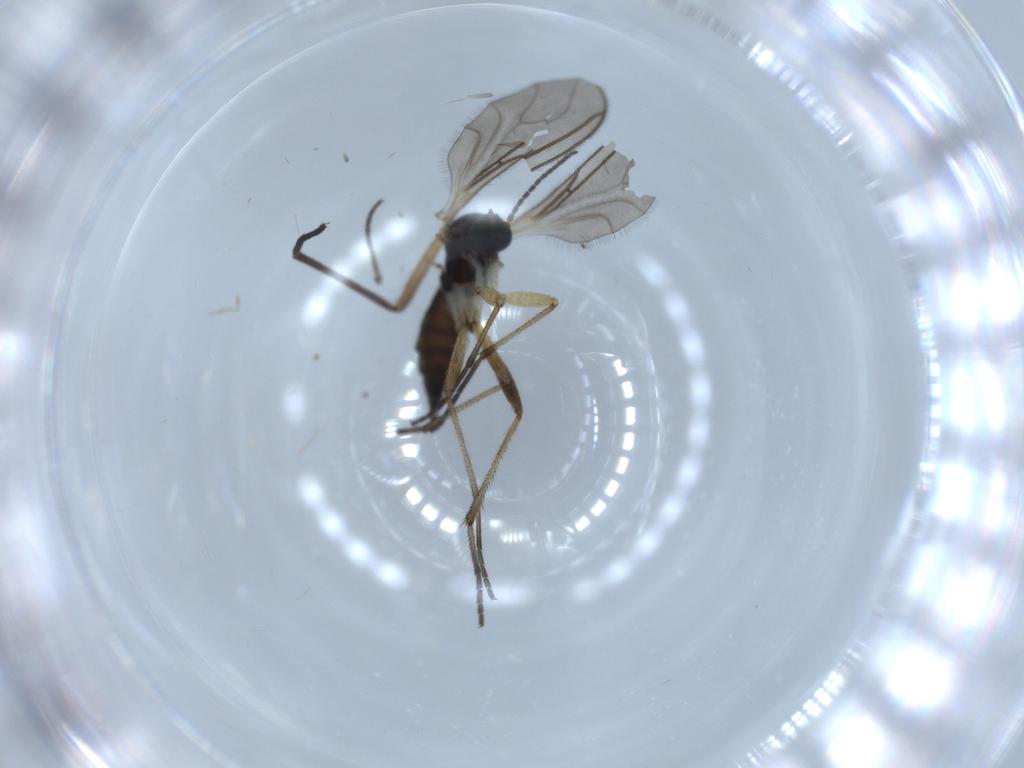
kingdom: Animalia
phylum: Arthropoda
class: Insecta
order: Diptera
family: Sciaridae
